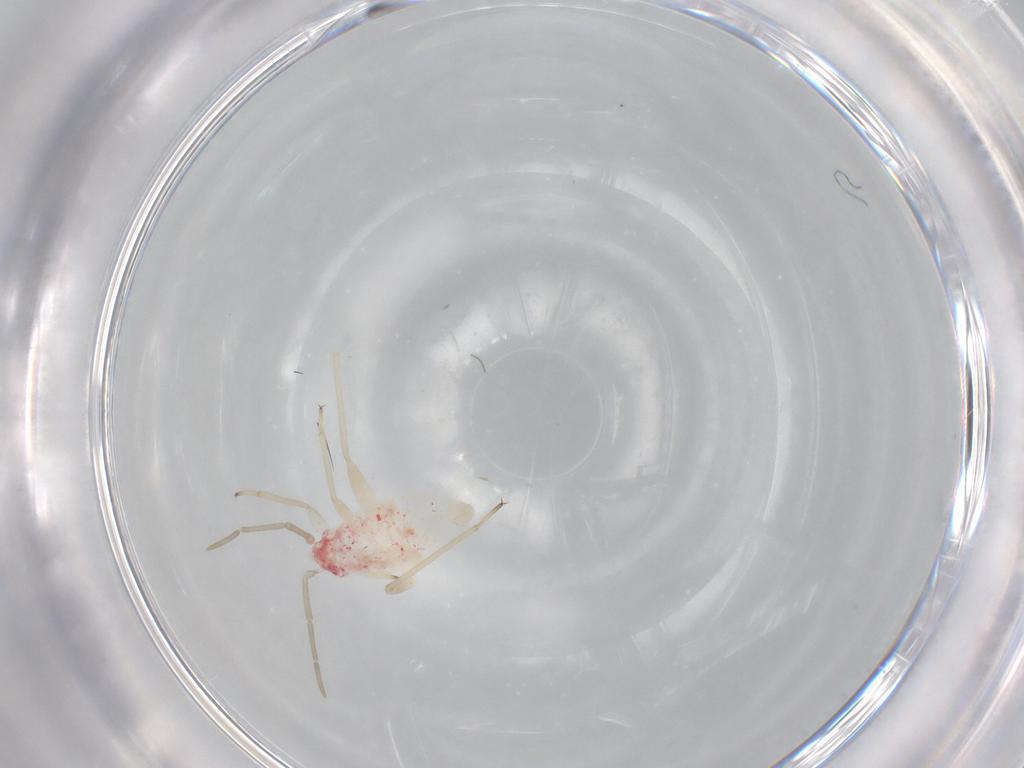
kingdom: Animalia
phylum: Arthropoda
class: Insecta
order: Hemiptera
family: Miridae
